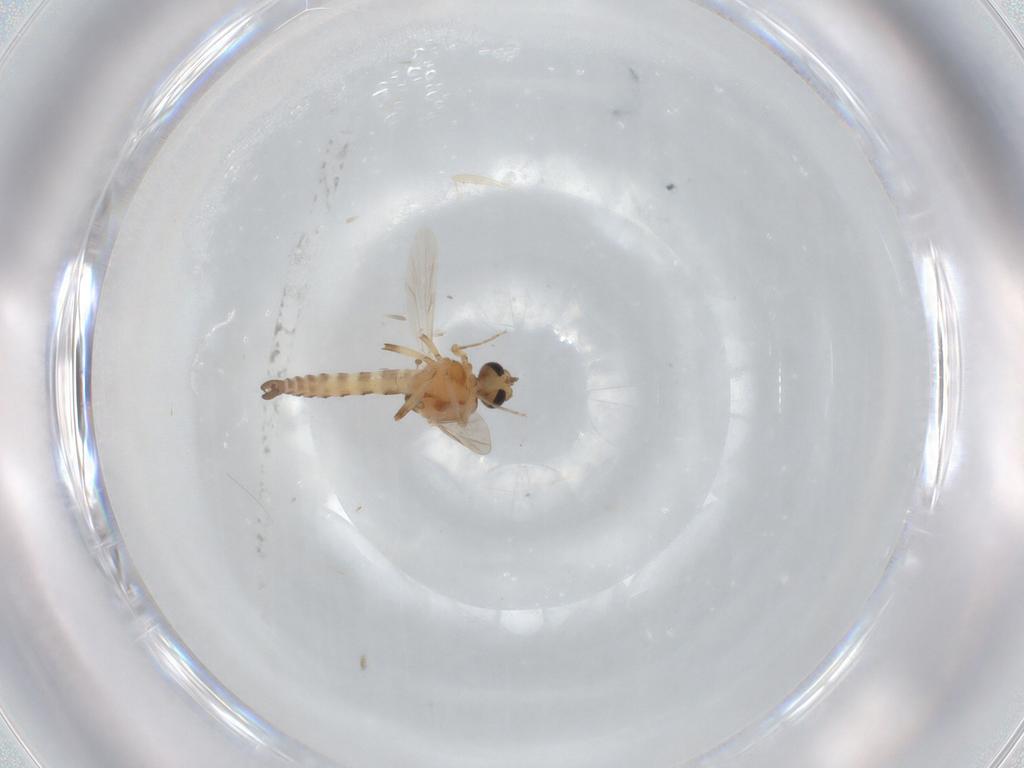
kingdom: Animalia
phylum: Arthropoda
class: Insecta
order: Diptera
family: Ceratopogonidae
